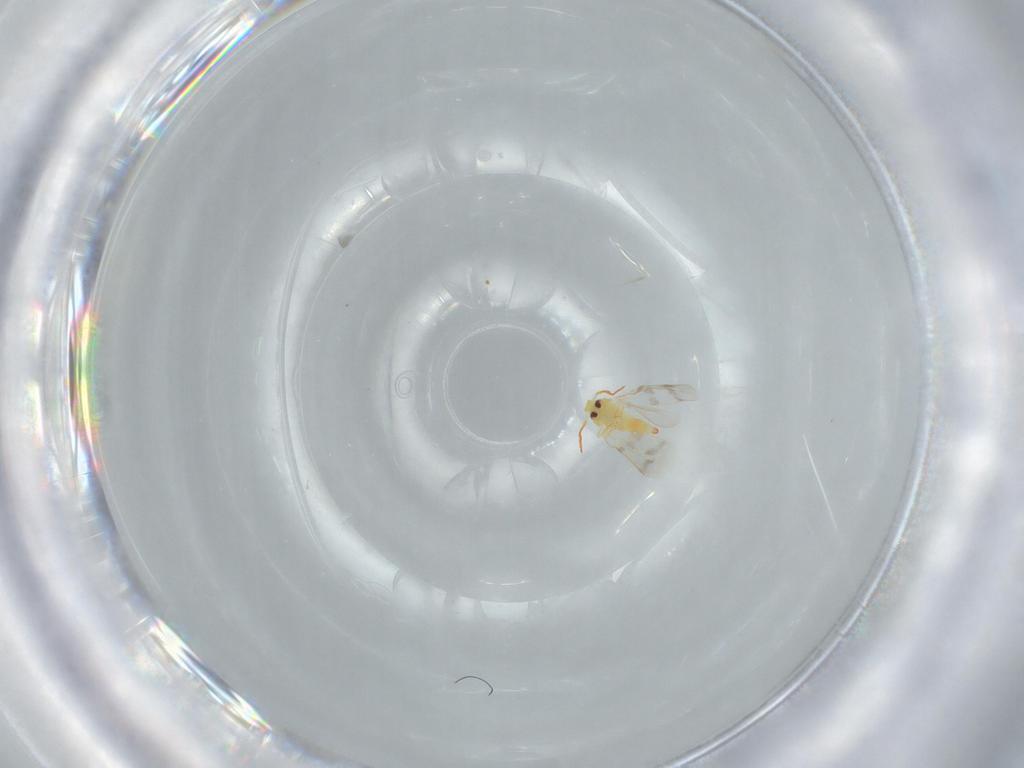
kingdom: Animalia
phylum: Arthropoda
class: Insecta
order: Hemiptera
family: Aleyrodidae
